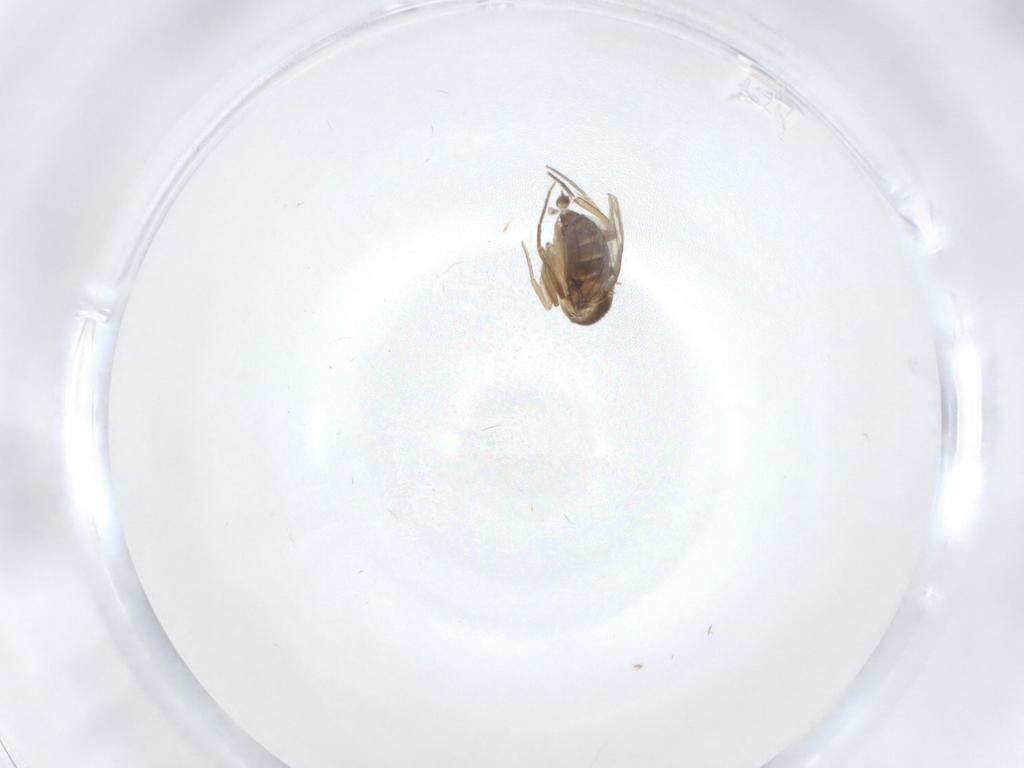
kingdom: Animalia
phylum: Arthropoda
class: Insecta
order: Diptera
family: Phoridae
